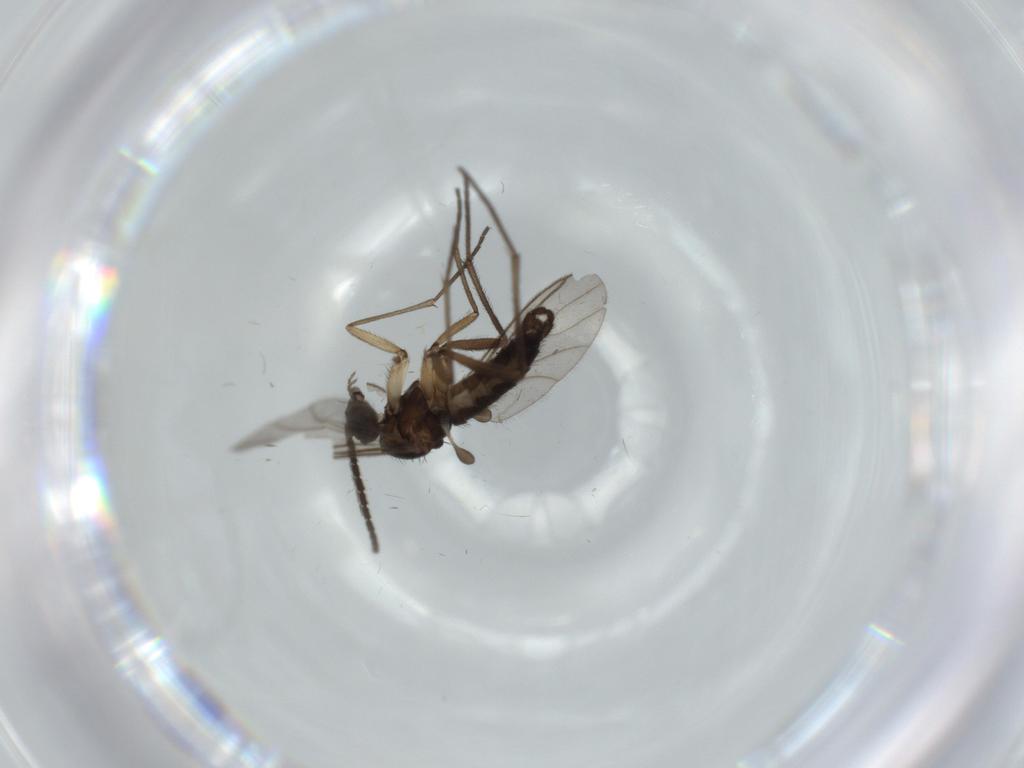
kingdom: Animalia
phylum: Arthropoda
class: Insecta
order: Diptera
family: Sciaridae
